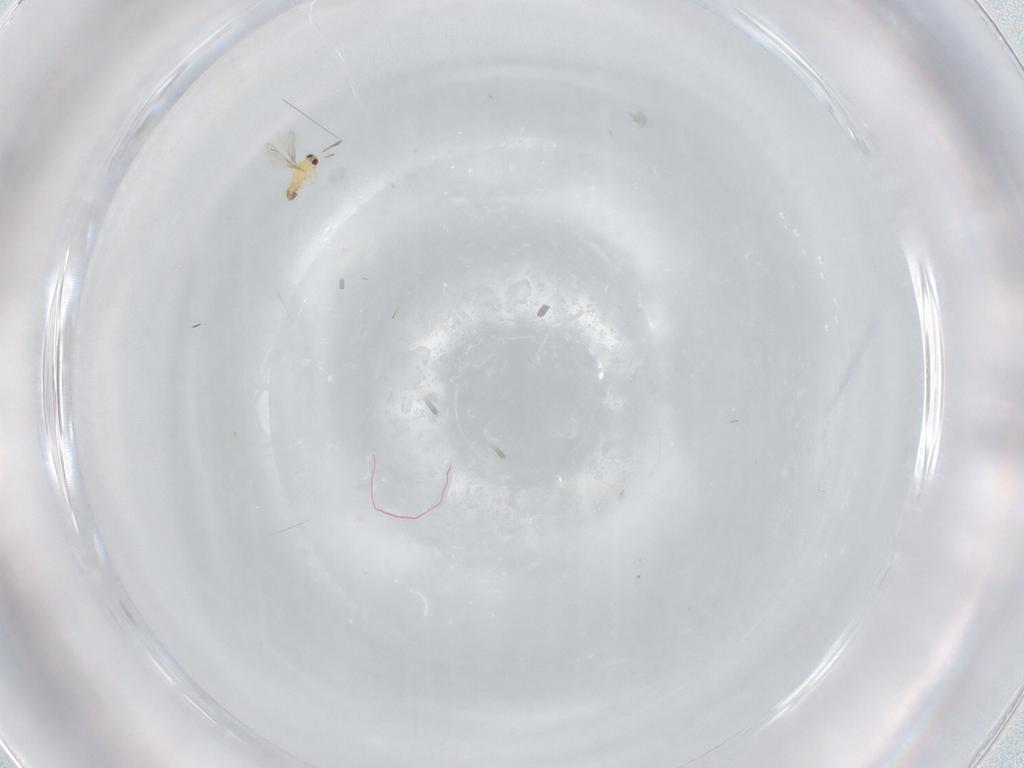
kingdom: Animalia
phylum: Arthropoda
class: Insecta
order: Hymenoptera
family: Mymaridae
